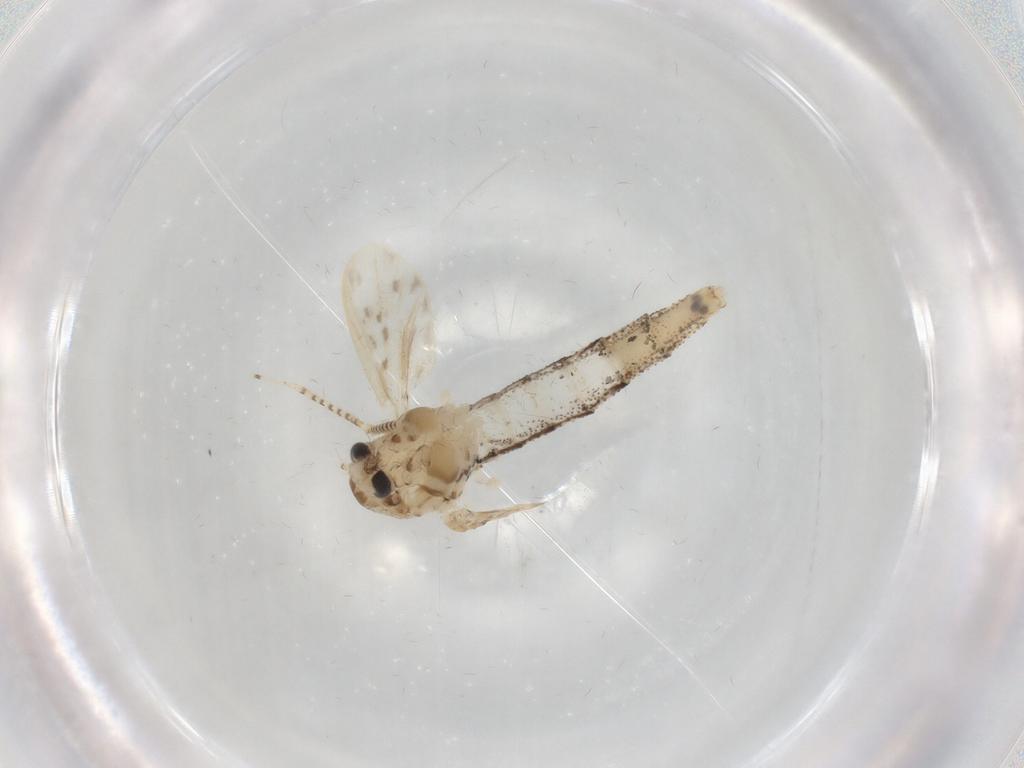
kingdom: Animalia
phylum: Arthropoda
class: Insecta
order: Diptera
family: Chaoboridae
